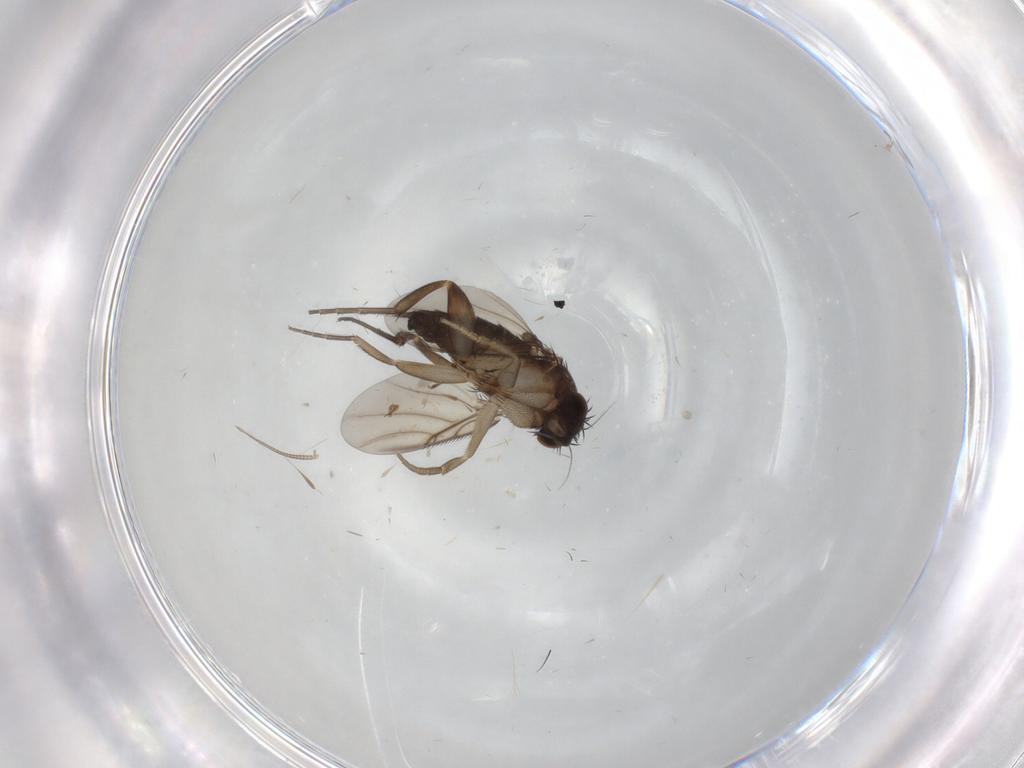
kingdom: Animalia
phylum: Arthropoda
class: Insecta
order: Diptera
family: Phoridae
